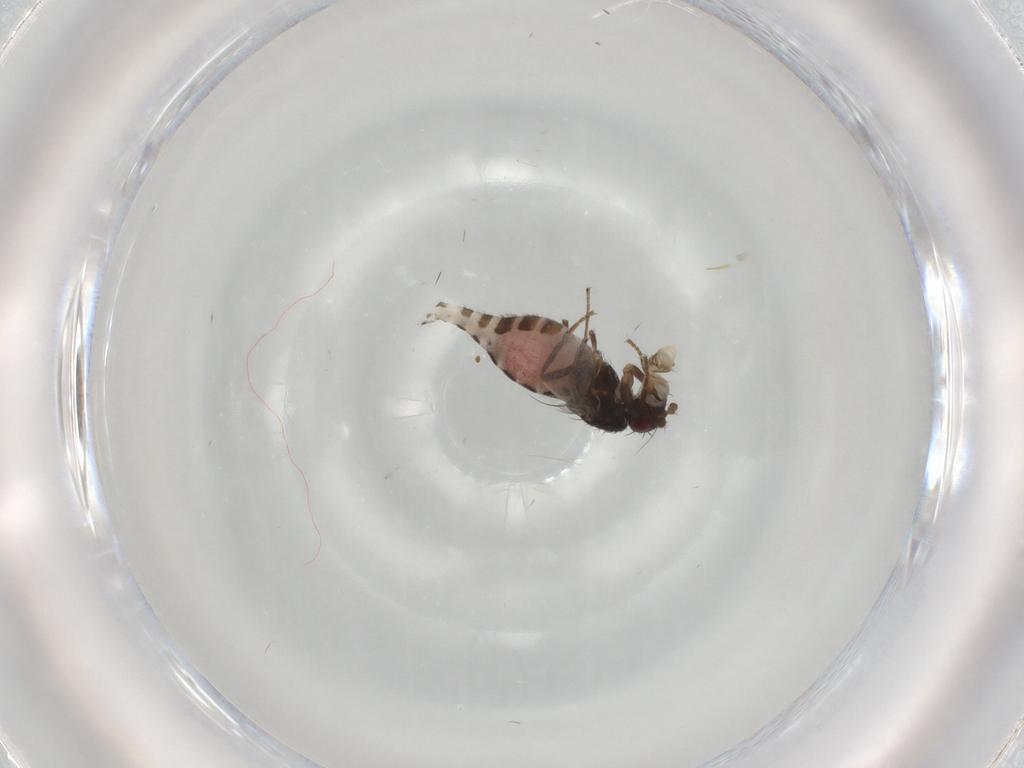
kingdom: Animalia
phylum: Arthropoda
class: Insecta
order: Diptera
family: Sphaeroceridae
